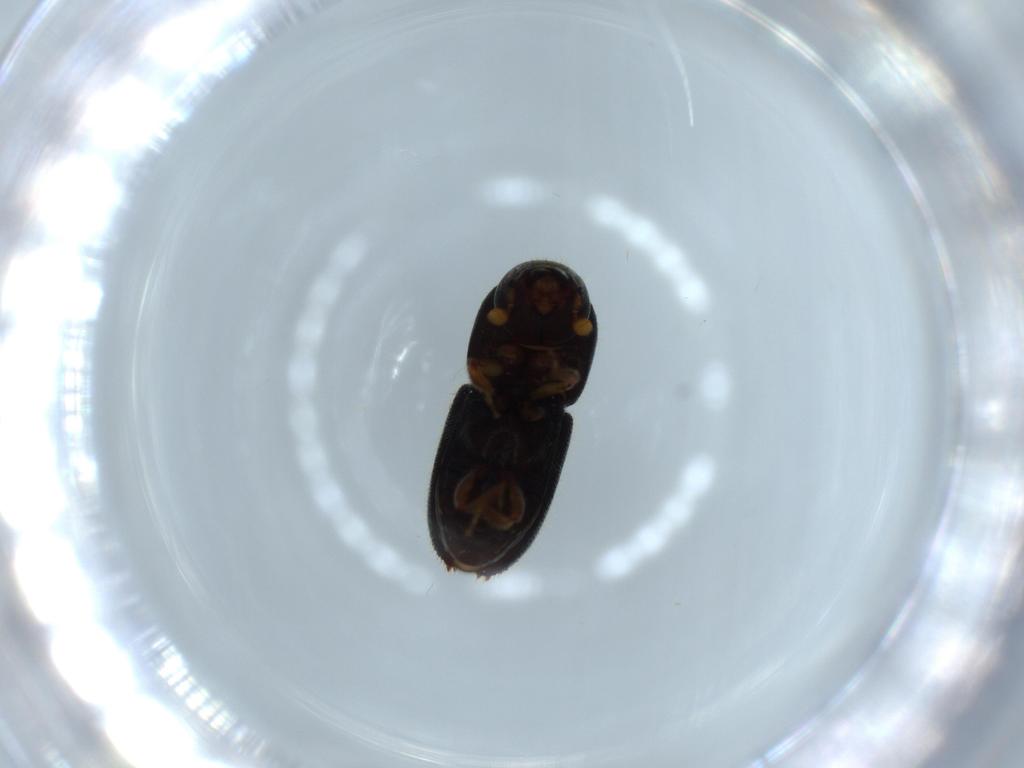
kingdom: Animalia
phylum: Arthropoda
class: Insecta
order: Coleoptera
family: Curculionidae
